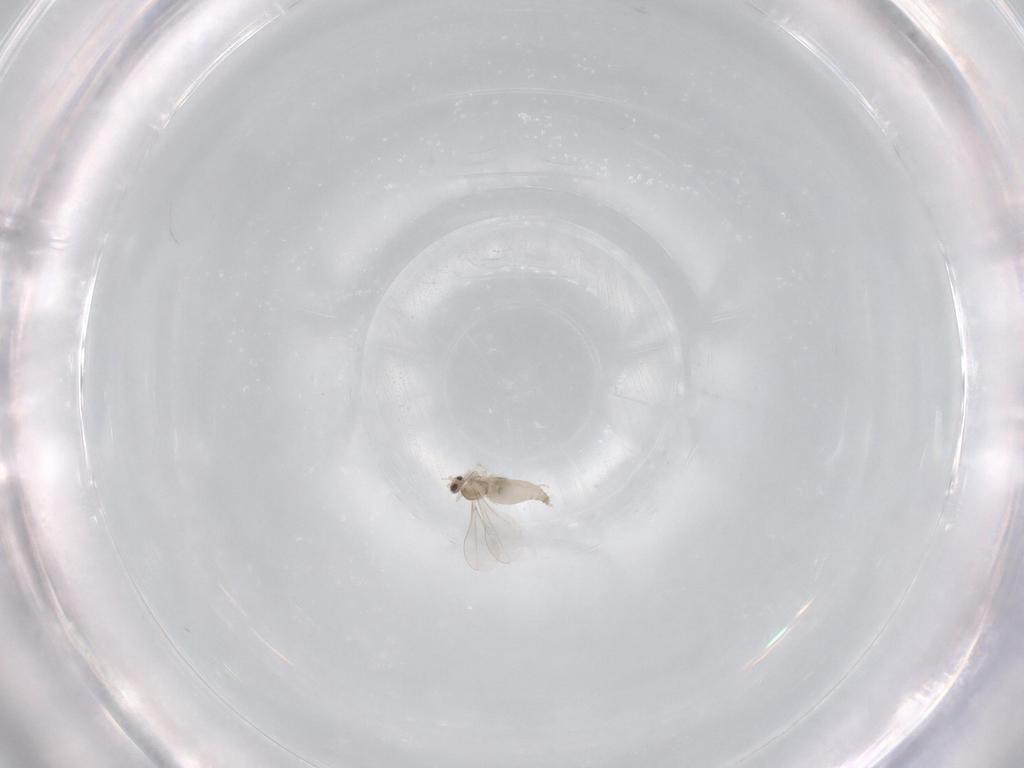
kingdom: Animalia
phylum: Arthropoda
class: Insecta
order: Diptera
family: Cecidomyiidae
